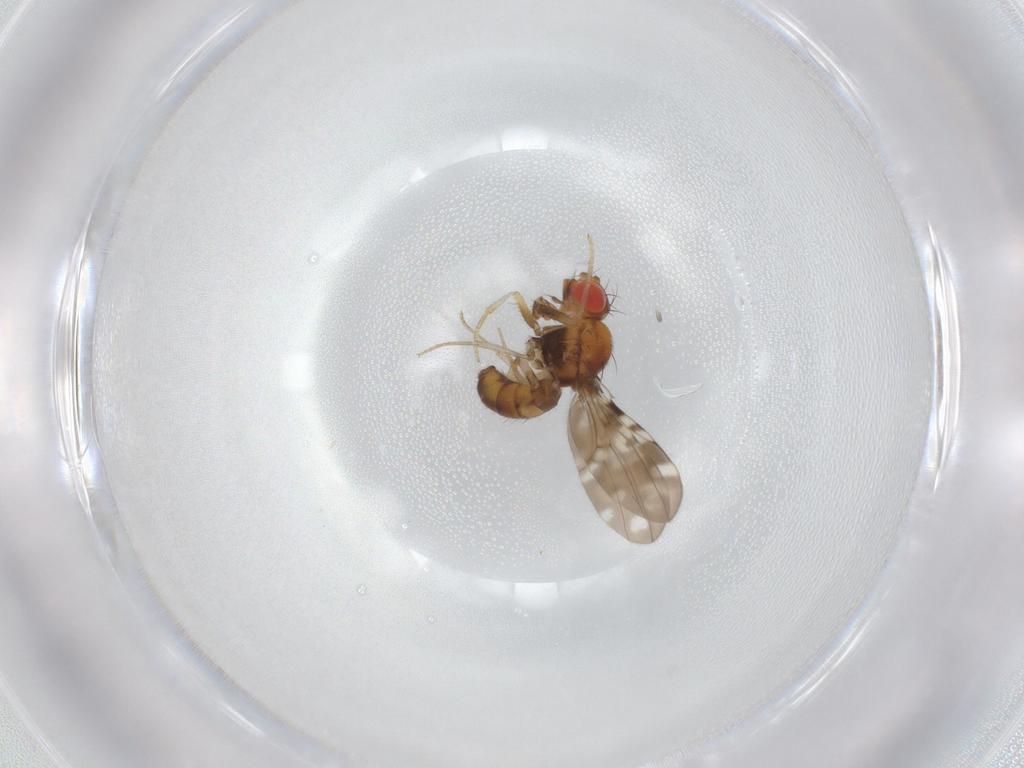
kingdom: Animalia
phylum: Arthropoda
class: Insecta
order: Diptera
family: Drosophilidae
